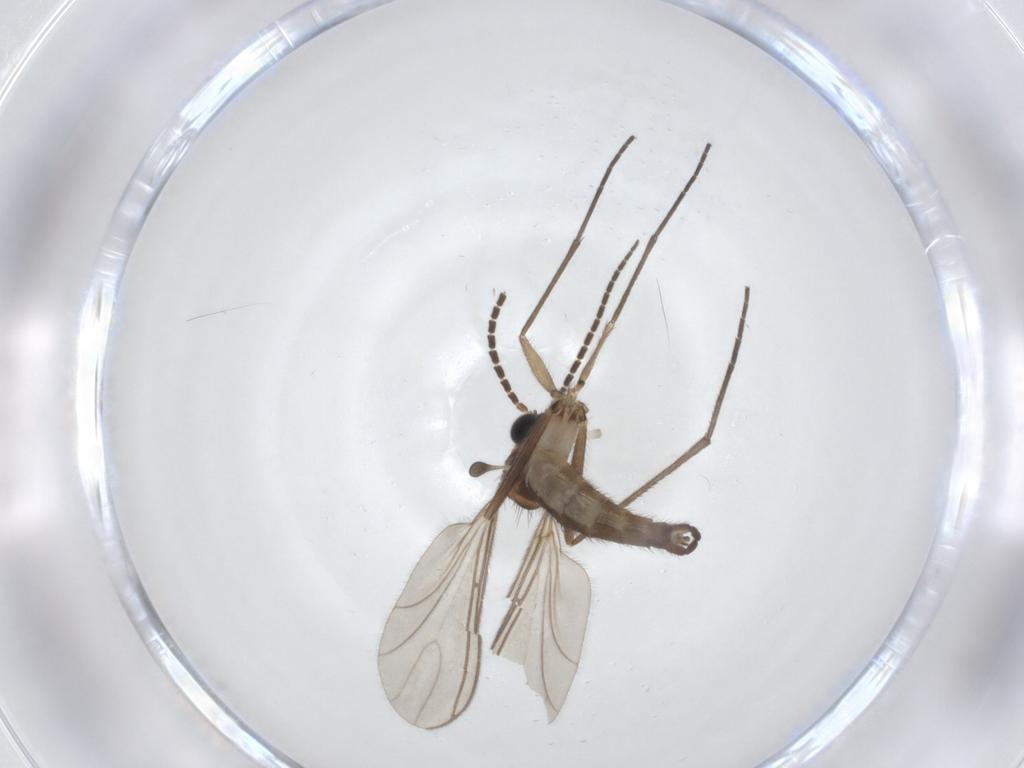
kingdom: Animalia
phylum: Arthropoda
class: Insecta
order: Diptera
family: Sciaridae
